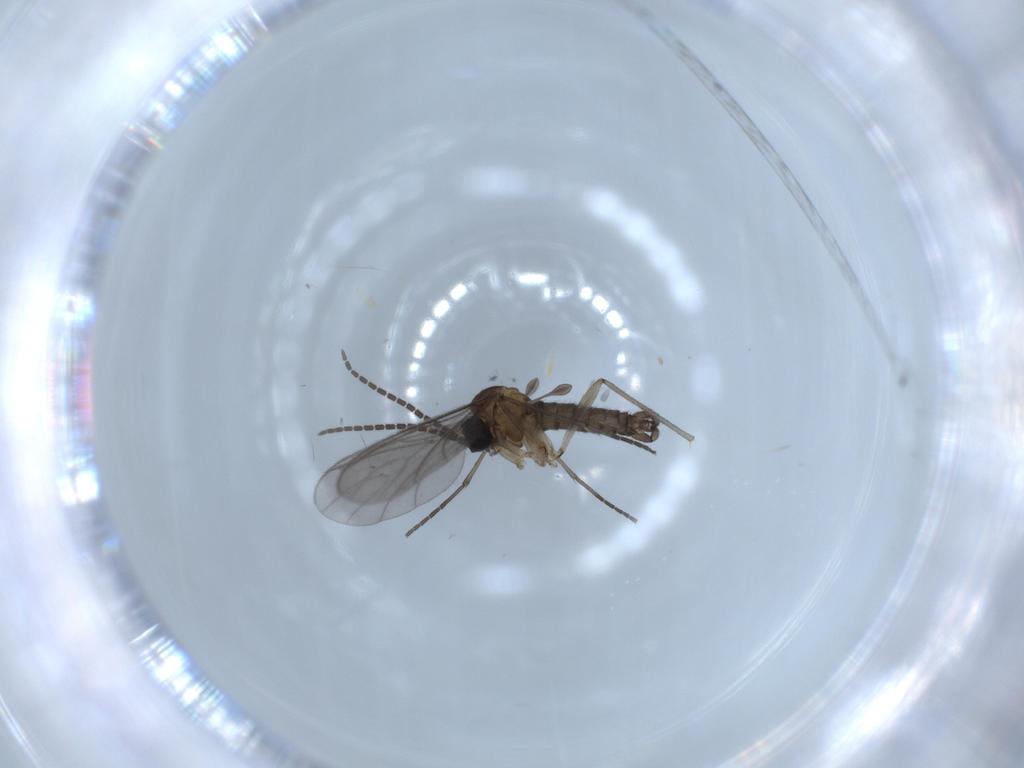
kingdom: Animalia
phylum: Arthropoda
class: Insecta
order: Diptera
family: Sciaridae
